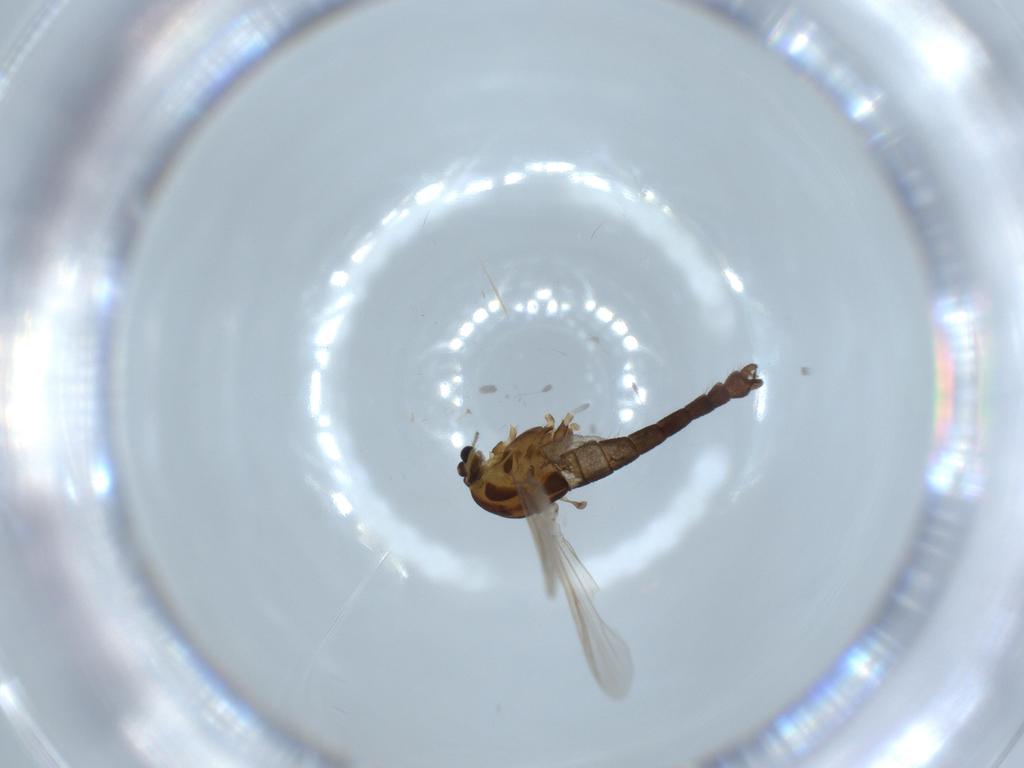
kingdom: Animalia
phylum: Arthropoda
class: Insecta
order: Diptera
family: Chironomidae
